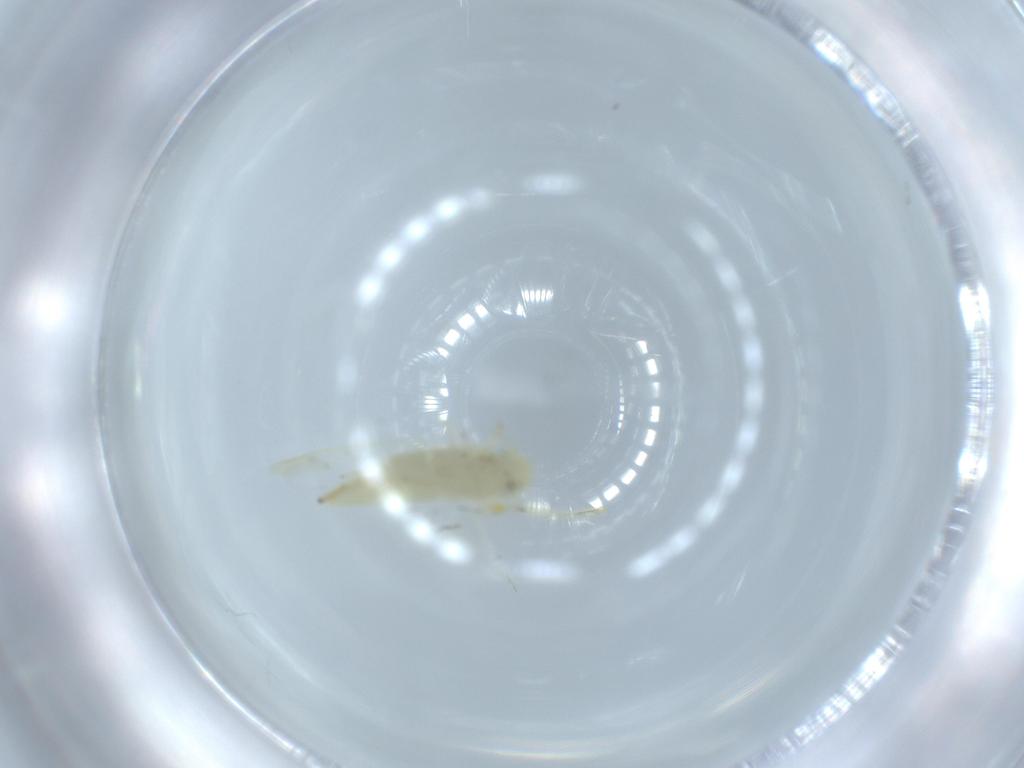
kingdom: Animalia
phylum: Arthropoda
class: Insecta
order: Hemiptera
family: Cicadellidae
